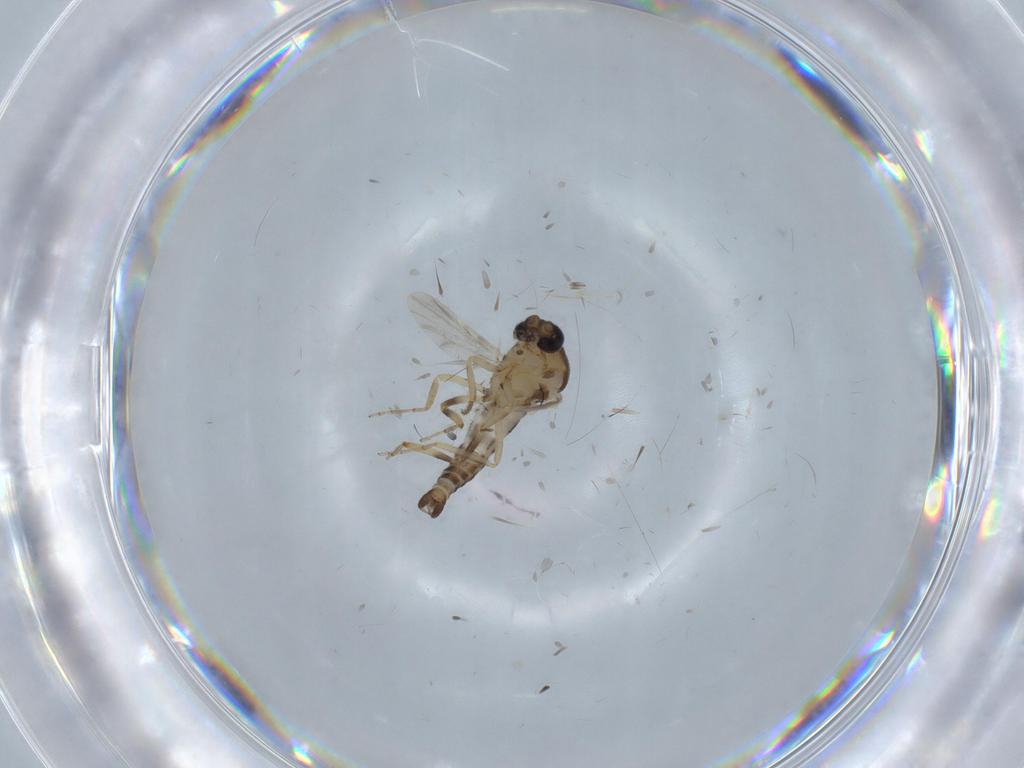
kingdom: Animalia
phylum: Arthropoda
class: Insecta
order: Diptera
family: Ceratopogonidae
